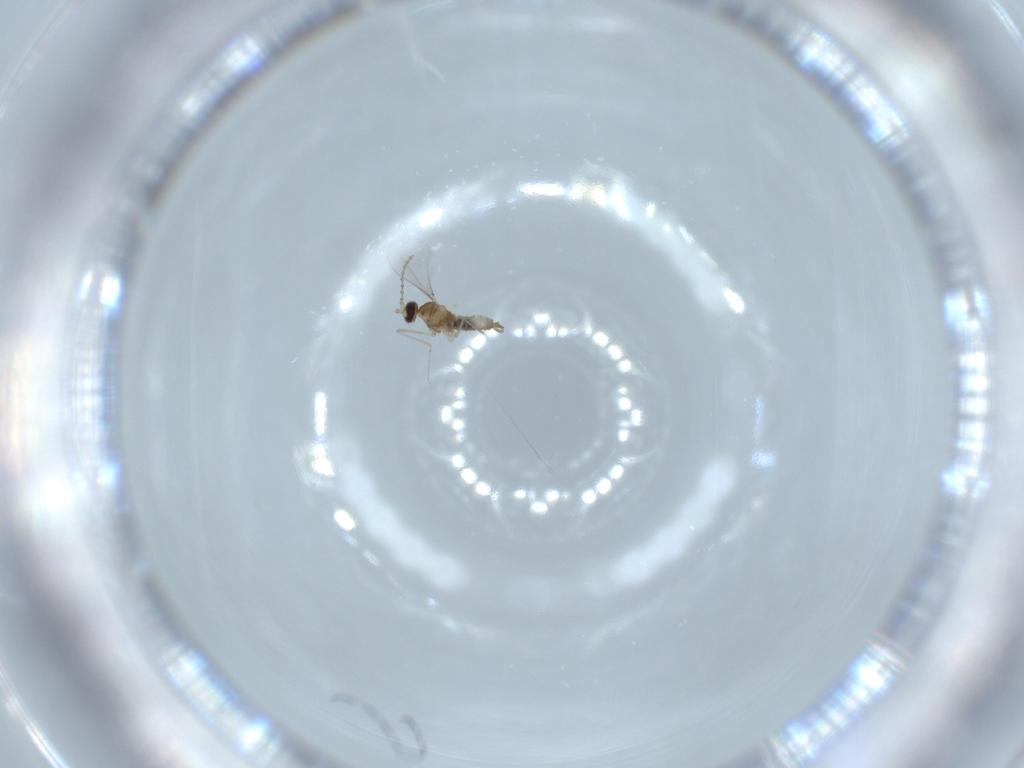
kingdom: Animalia
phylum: Arthropoda
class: Insecta
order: Diptera
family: Cecidomyiidae
